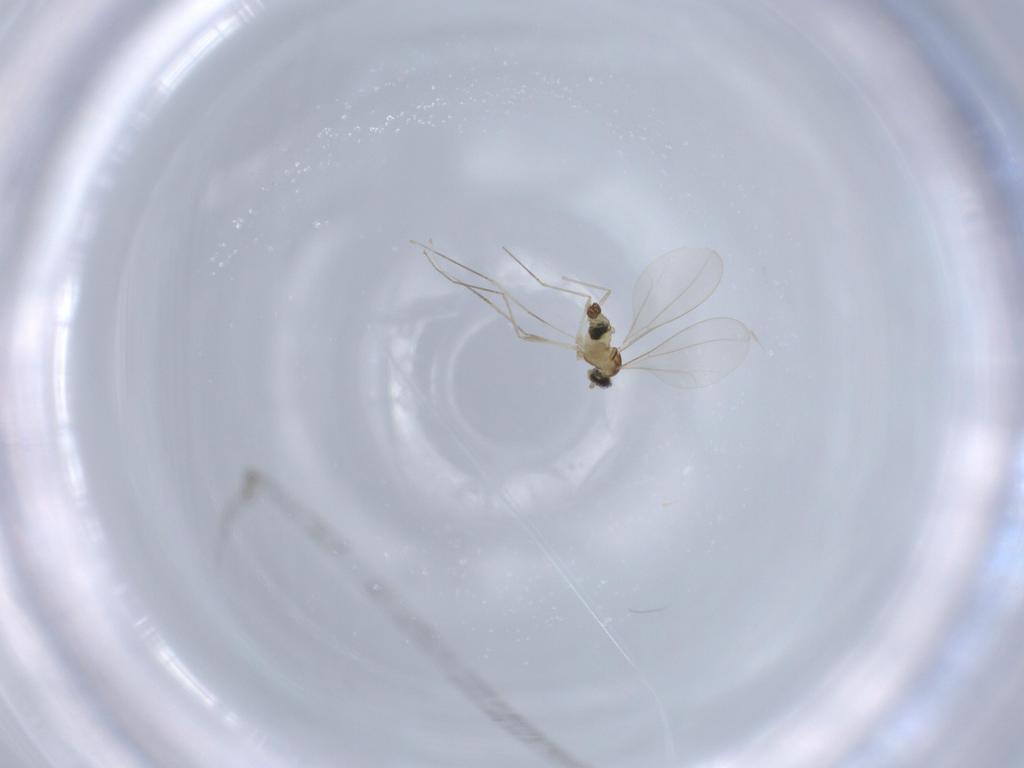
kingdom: Animalia
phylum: Arthropoda
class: Insecta
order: Diptera
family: Cecidomyiidae
